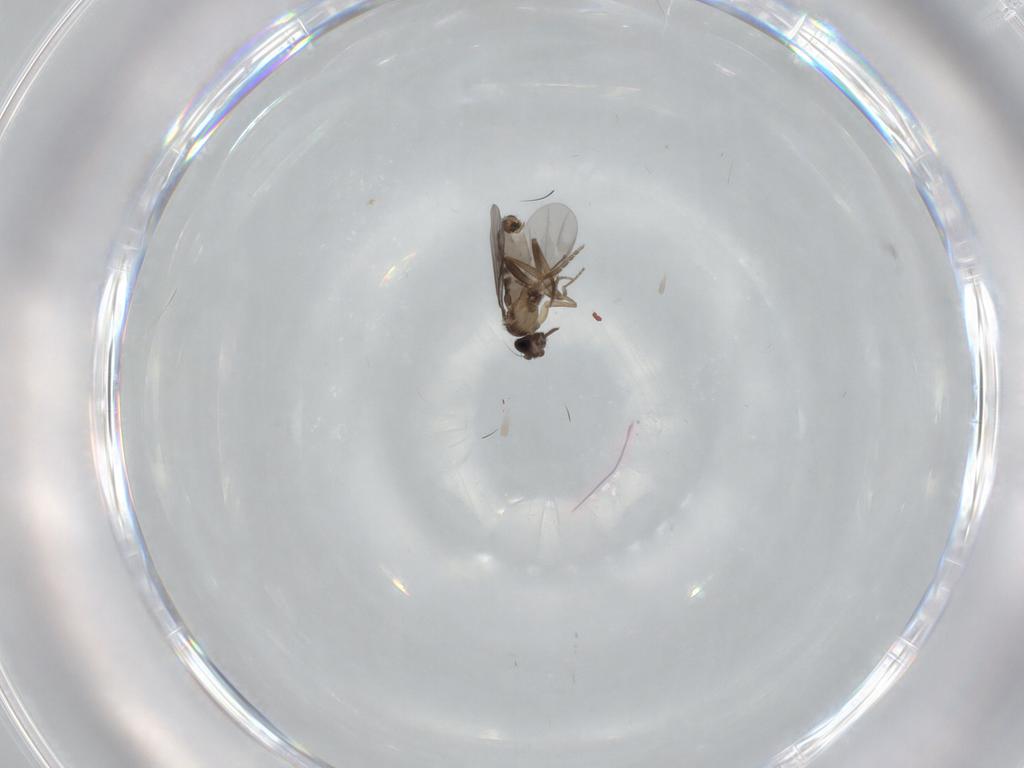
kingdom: Animalia
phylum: Arthropoda
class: Insecta
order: Diptera
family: Phoridae
